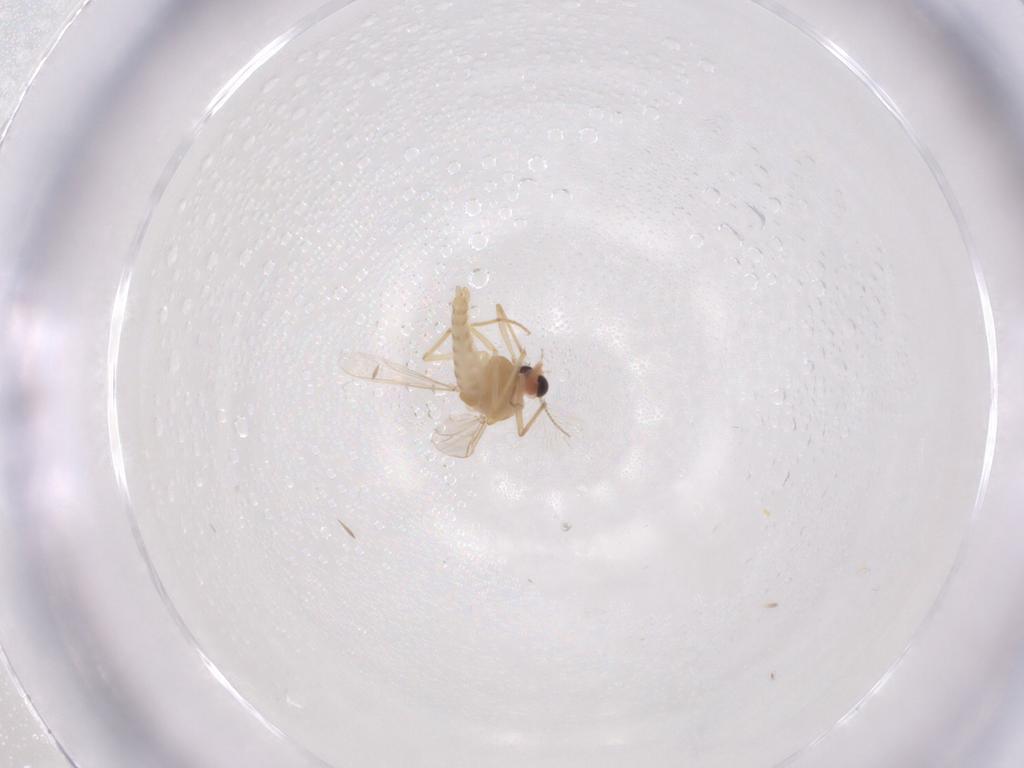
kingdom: Animalia
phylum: Arthropoda
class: Insecta
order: Diptera
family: Chironomidae
